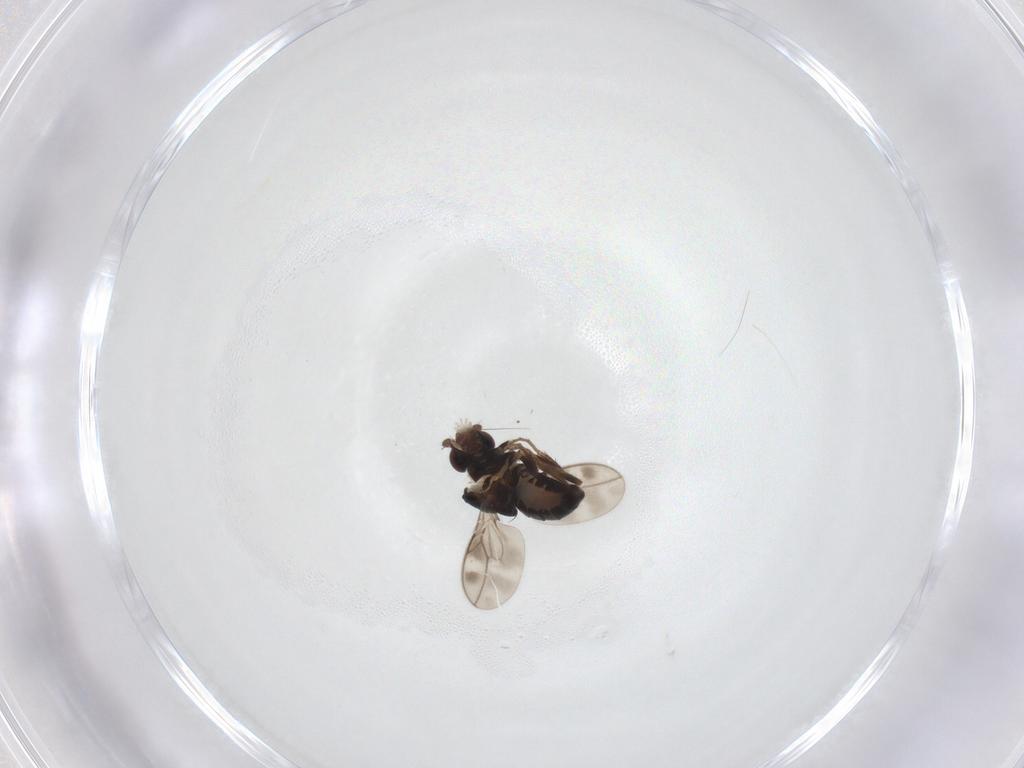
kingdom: Animalia
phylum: Arthropoda
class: Insecta
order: Diptera
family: Sphaeroceridae
